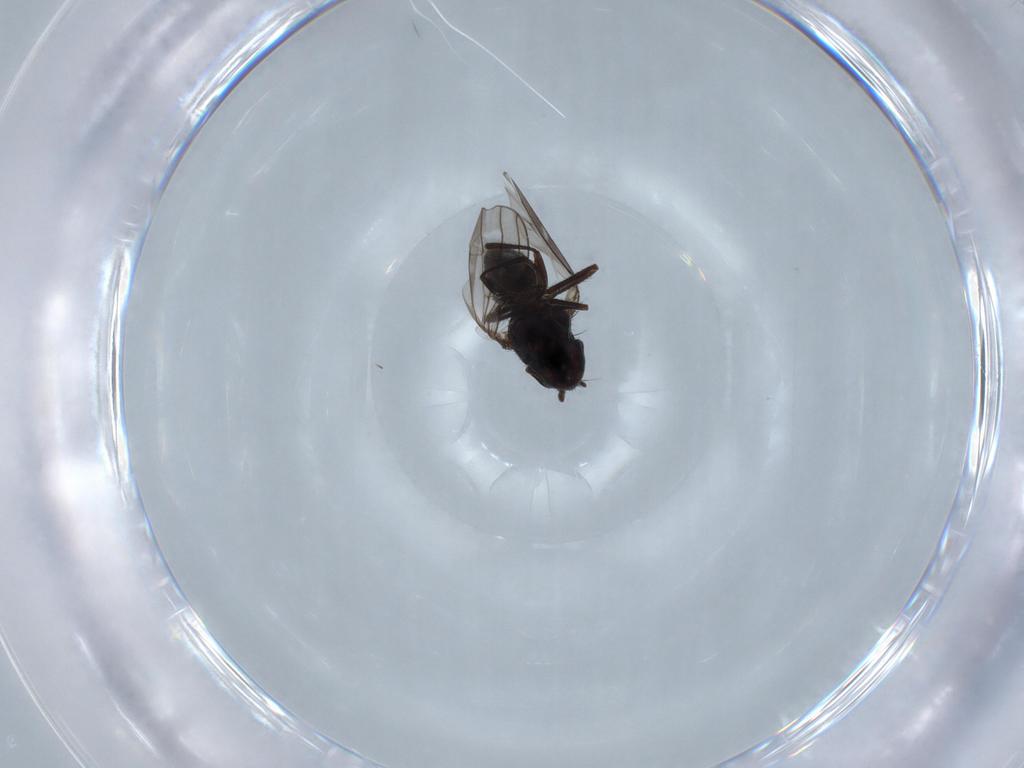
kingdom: Animalia
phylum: Arthropoda
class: Insecta
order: Diptera
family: Ephydridae
